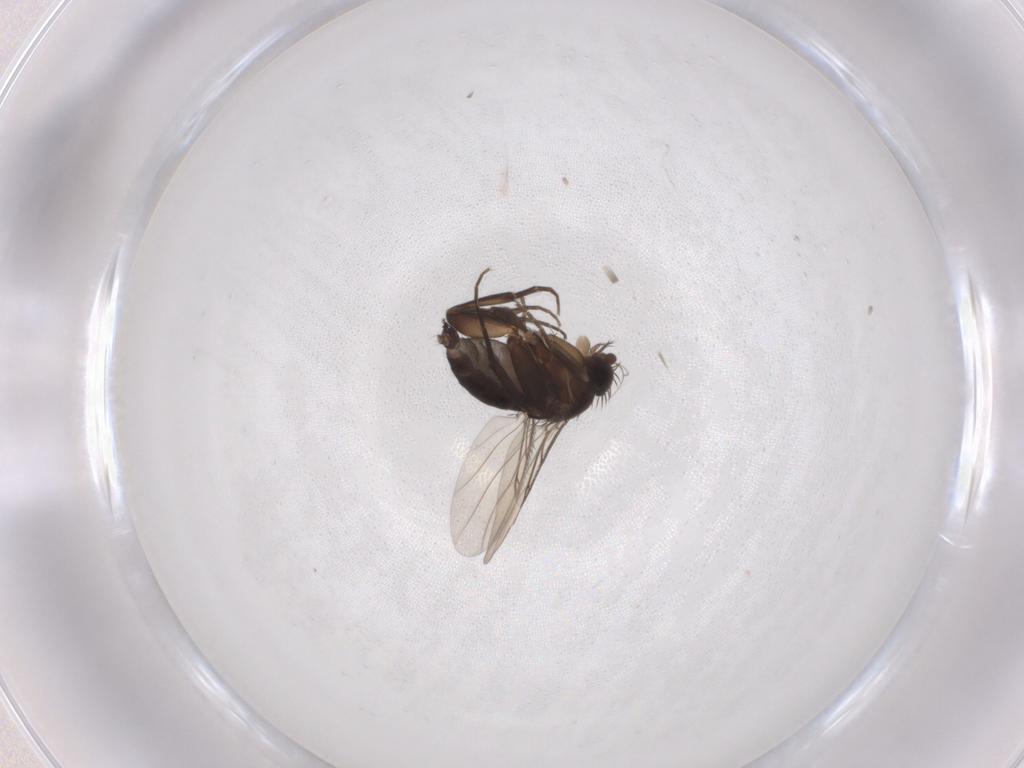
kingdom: Animalia
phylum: Arthropoda
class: Insecta
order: Diptera
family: Phoridae
